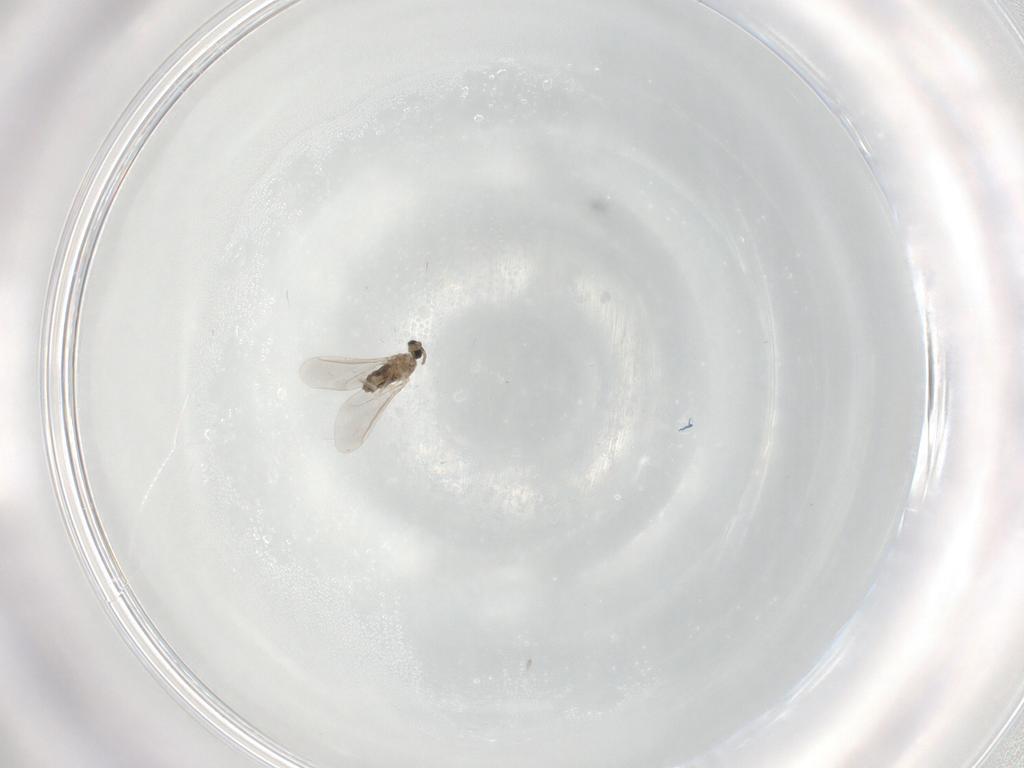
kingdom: Animalia
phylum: Arthropoda
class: Insecta
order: Diptera
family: Cecidomyiidae
